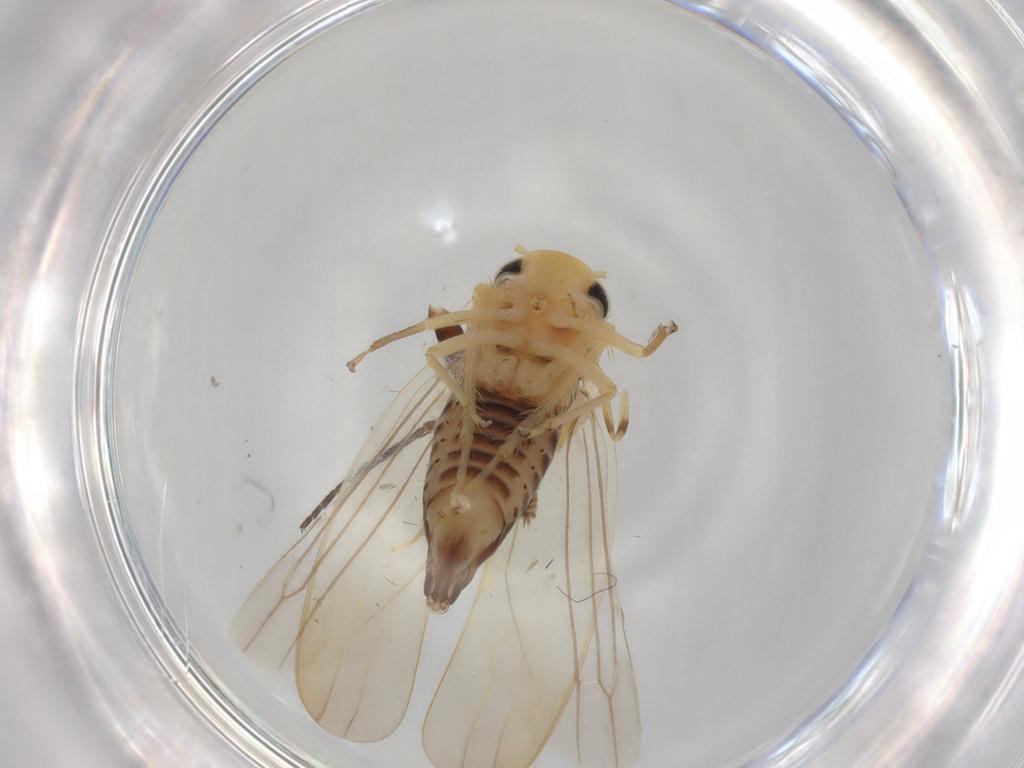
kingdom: Animalia
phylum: Arthropoda
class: Insecta
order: Hemiptera
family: Cicadellidae
